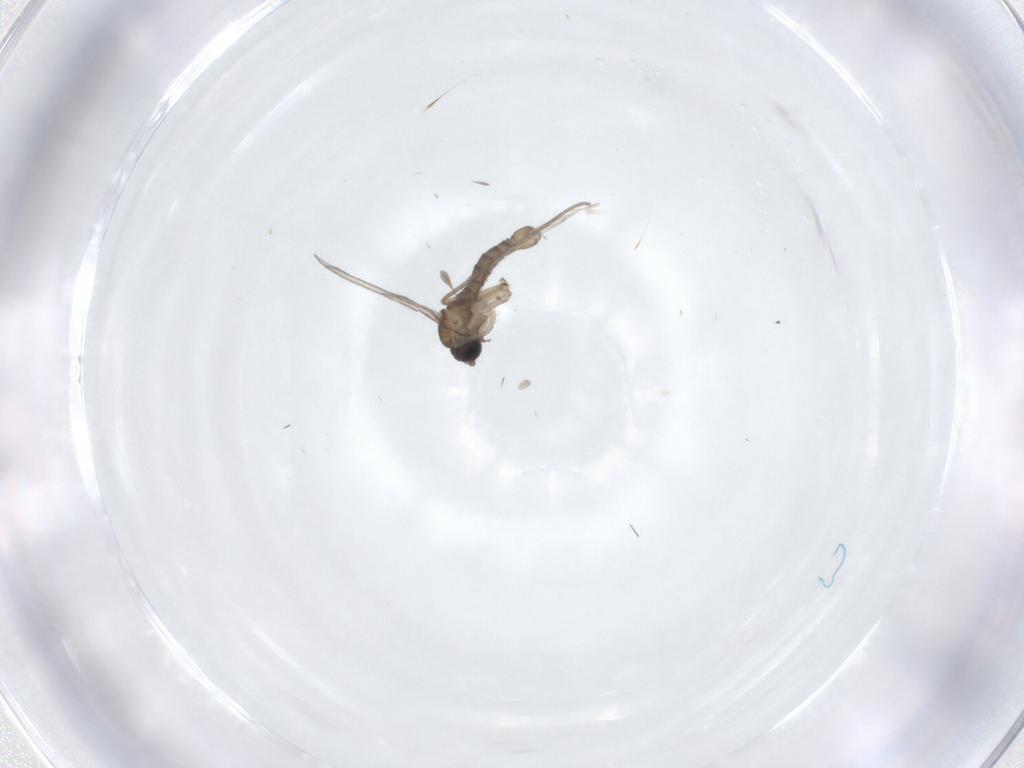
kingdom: Animalia
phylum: Arthropoda
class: Insecta
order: Diptera
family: Sciaridae
